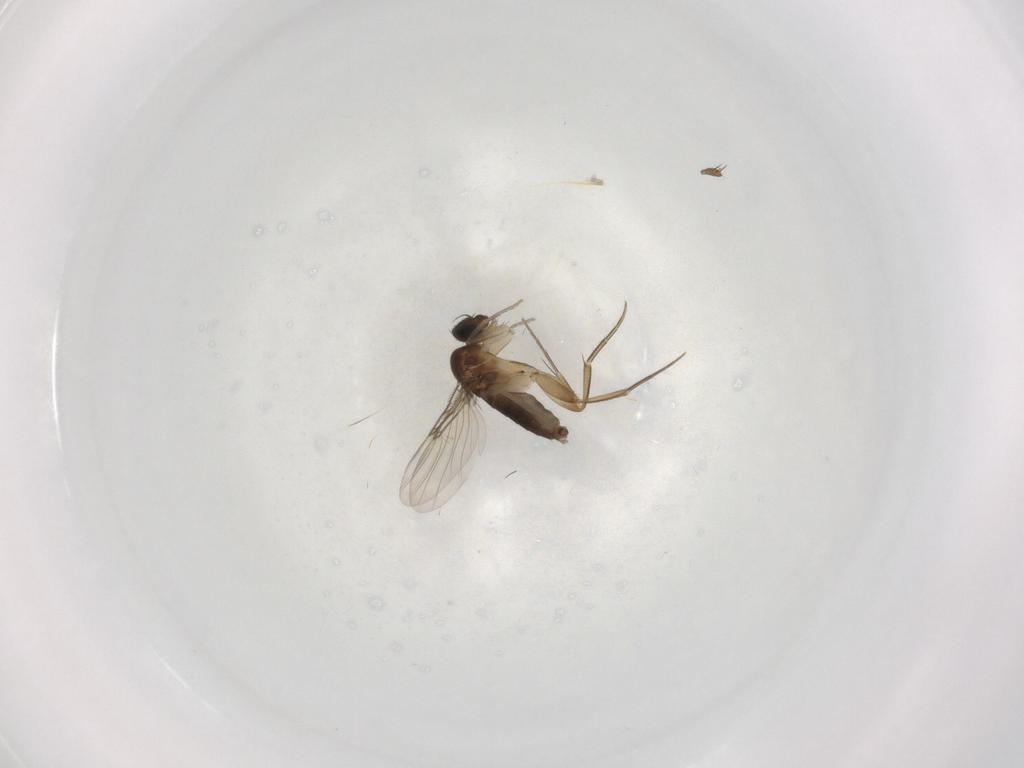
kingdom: Animalia
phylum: Arthropoda
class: Insecta
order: Diptera
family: Phoridae
